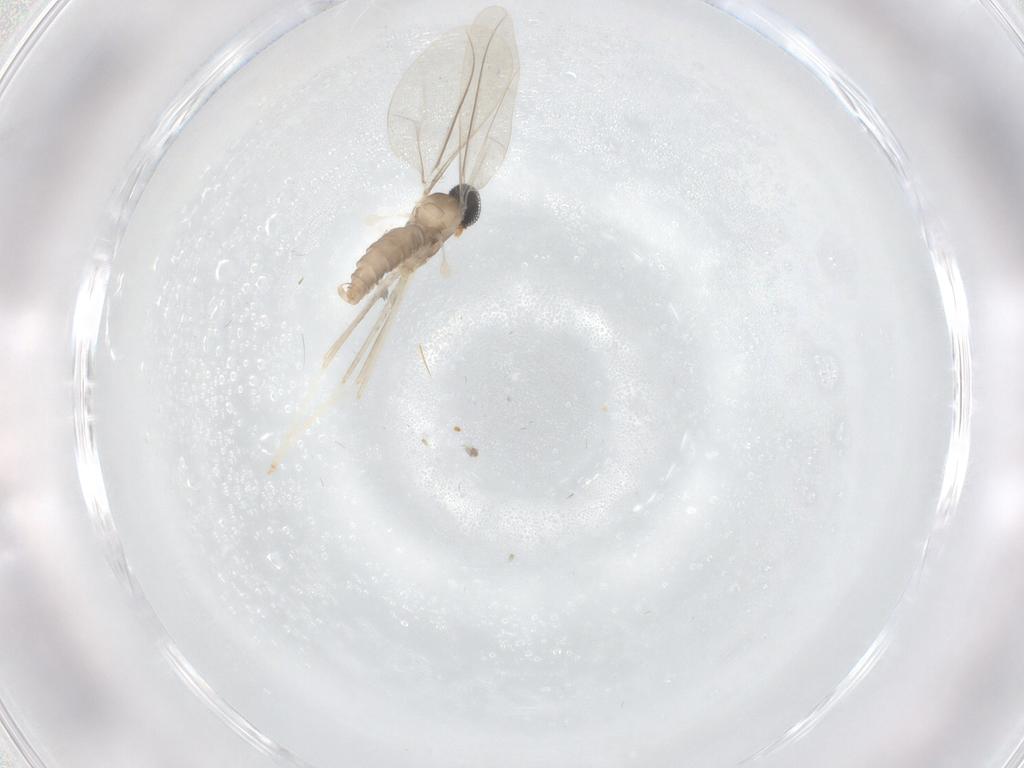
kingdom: Animalia
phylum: Arthropoda
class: Insecta
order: Diptera
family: Cecidomyiidae
